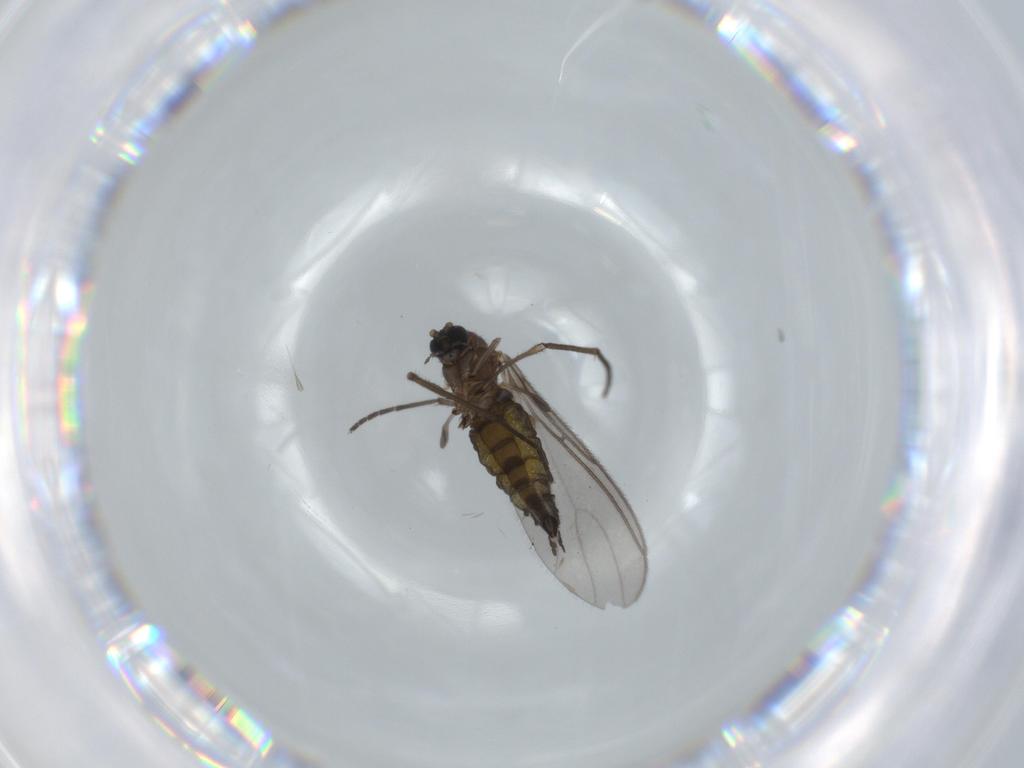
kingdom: Animalia
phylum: Arthropoda
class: Insecta
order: Diptera
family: Sciaridae
